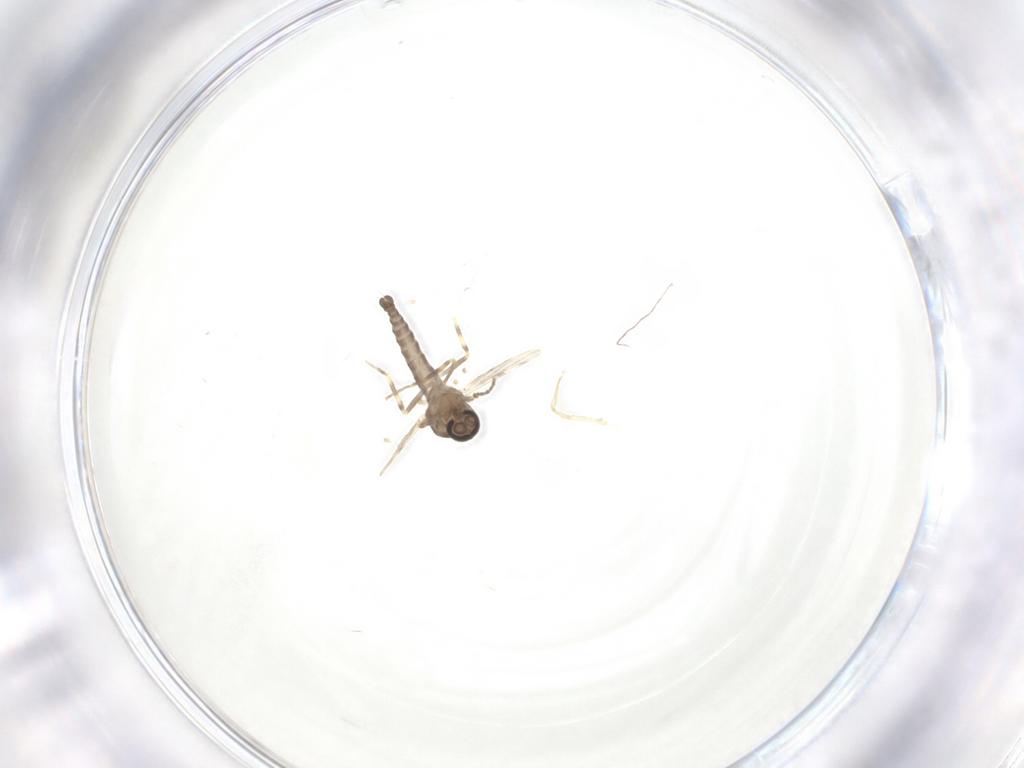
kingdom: Animalia
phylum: Arthropoda
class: Insecta
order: Diptera
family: Ceratopogonidae
